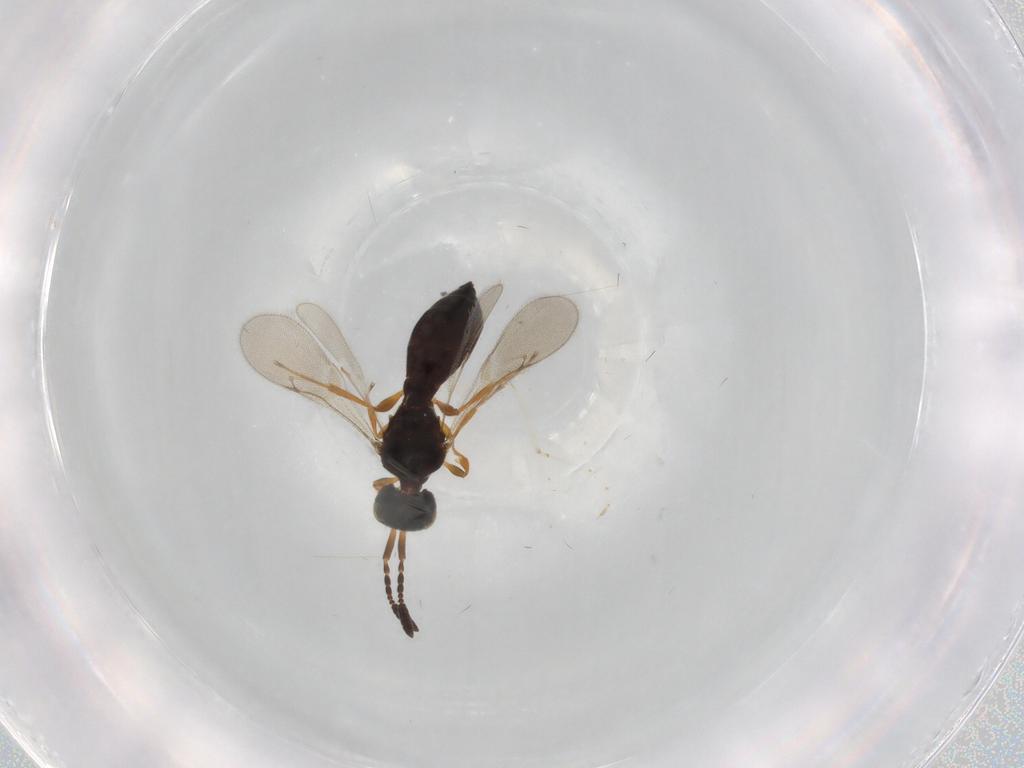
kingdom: Animalia
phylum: Arthropoda
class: Insecta
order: Hymenoptera
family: Scelionidae
